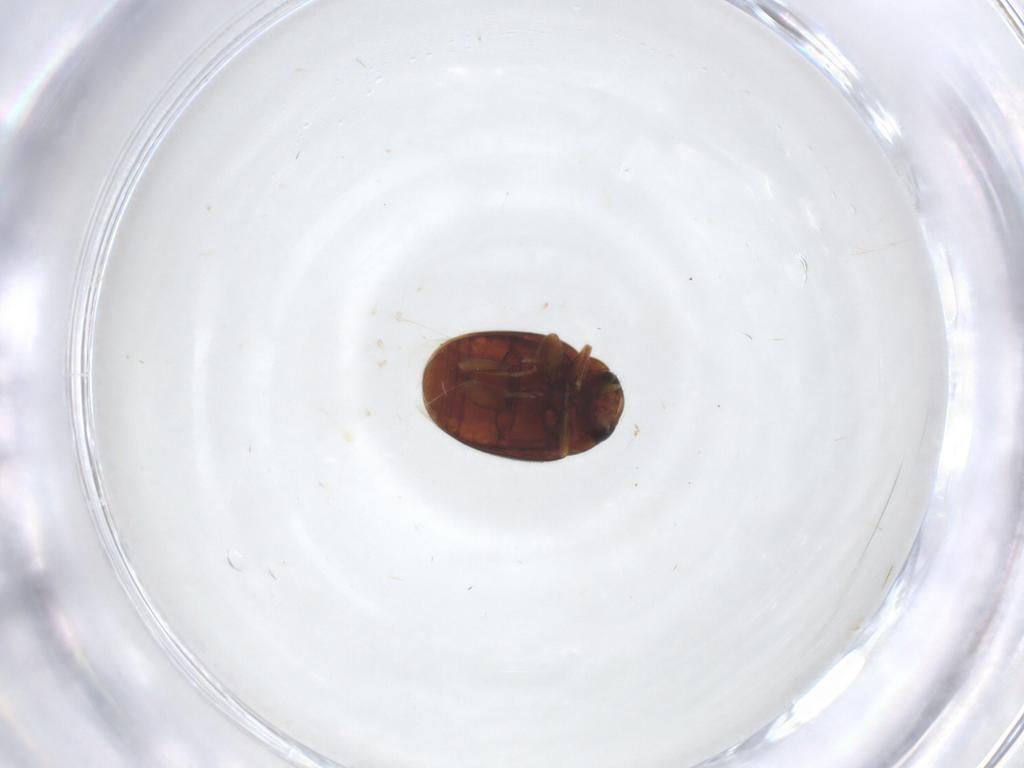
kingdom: Animalia
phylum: Arthropoda
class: Insecta
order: Coleoptera
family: Coccinellidae
